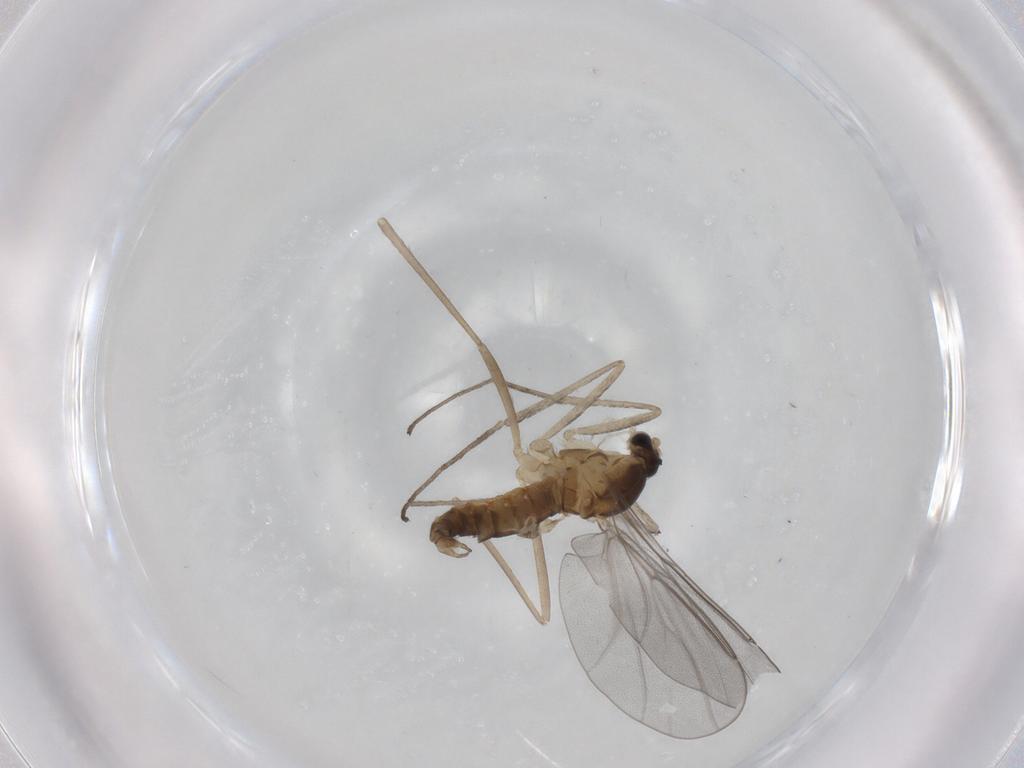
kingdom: Animalia
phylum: Arthropoda
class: Insecta
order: Diptera
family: Cecidomyiidae
